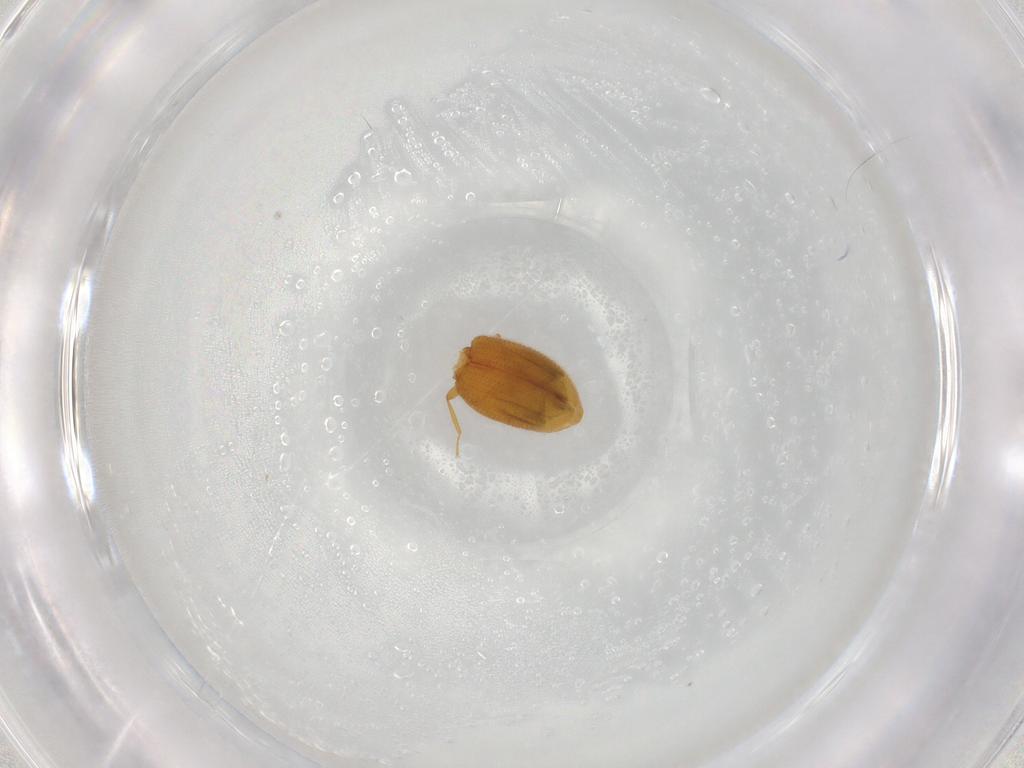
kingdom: Animalia
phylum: Arthropoda
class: Insecta
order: Coleoptera
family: Latridiidae
